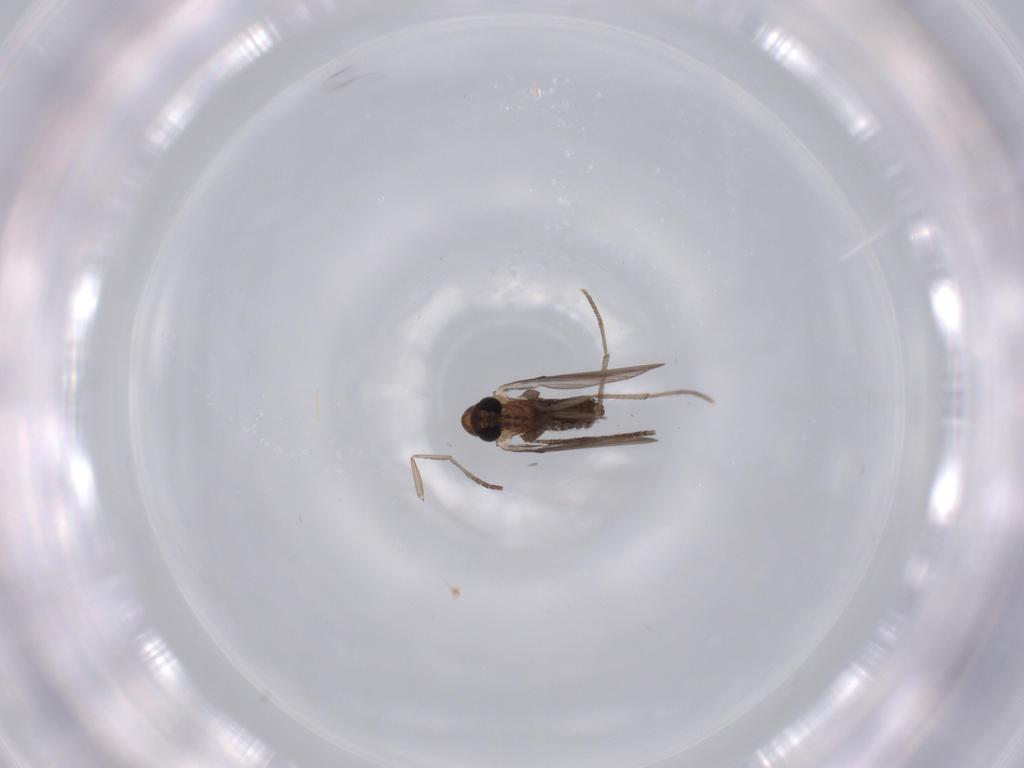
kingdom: Animalia
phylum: Arthropoda
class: Insecta
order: Diptera
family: Psychodidae
